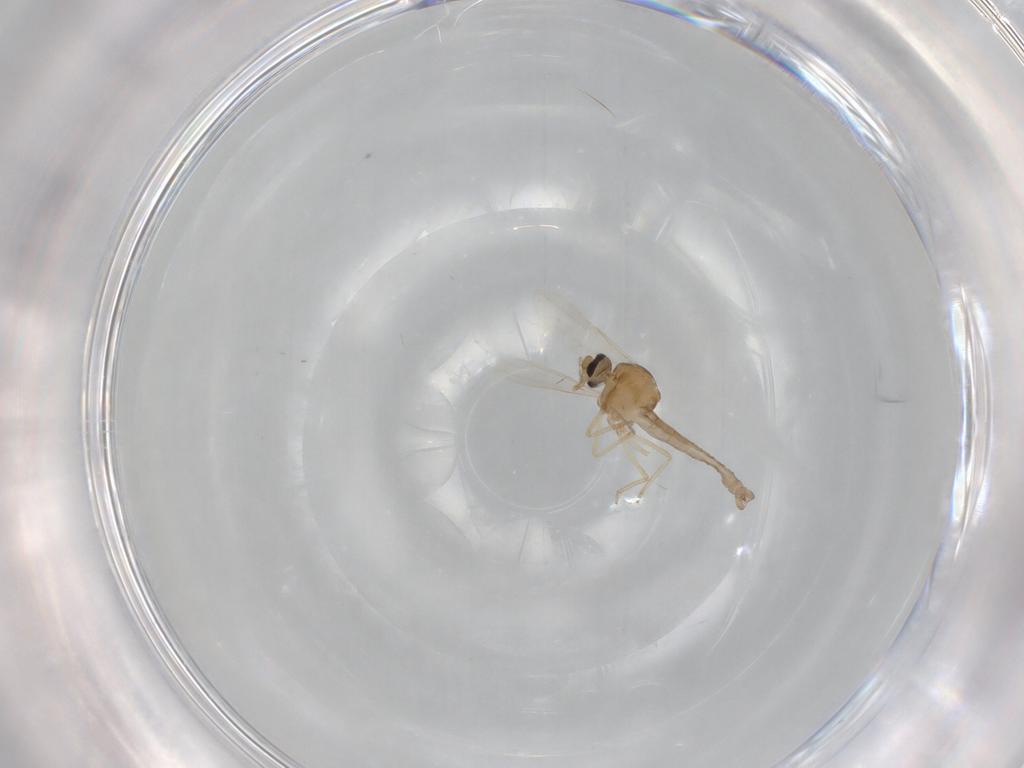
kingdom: Animalia
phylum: Arthropoda
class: Insecta
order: Diptera
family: Ceratopogonidae
